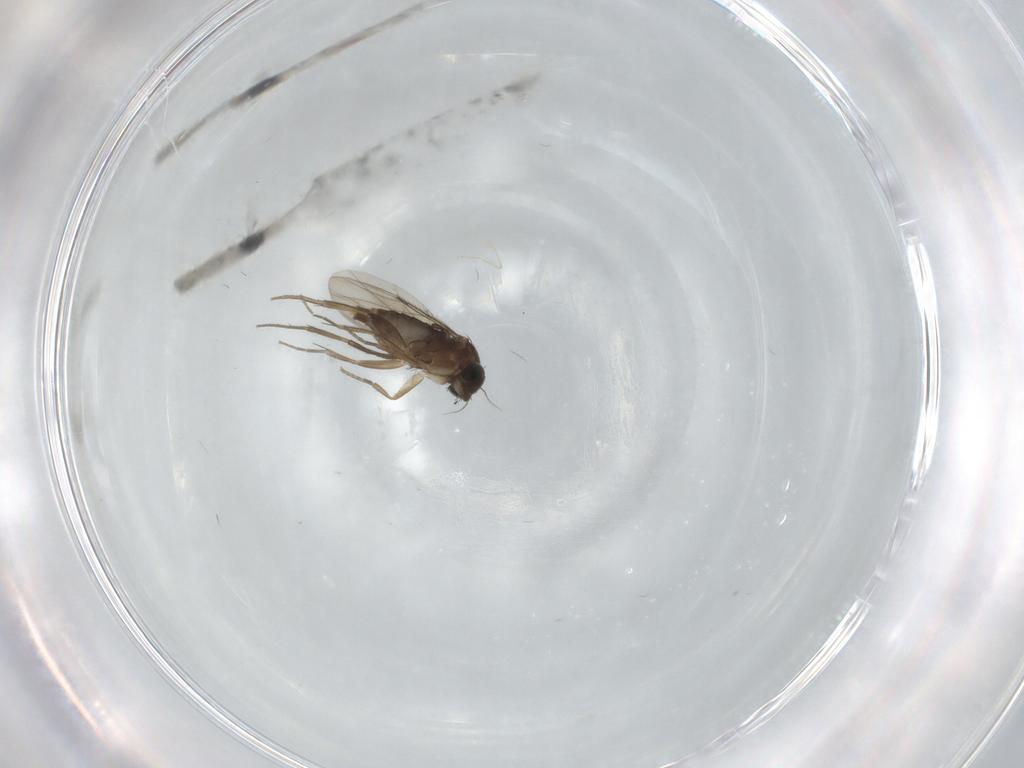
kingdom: Animalia
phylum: Arthropoda
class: Insecta
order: Diptera
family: Phoridae
